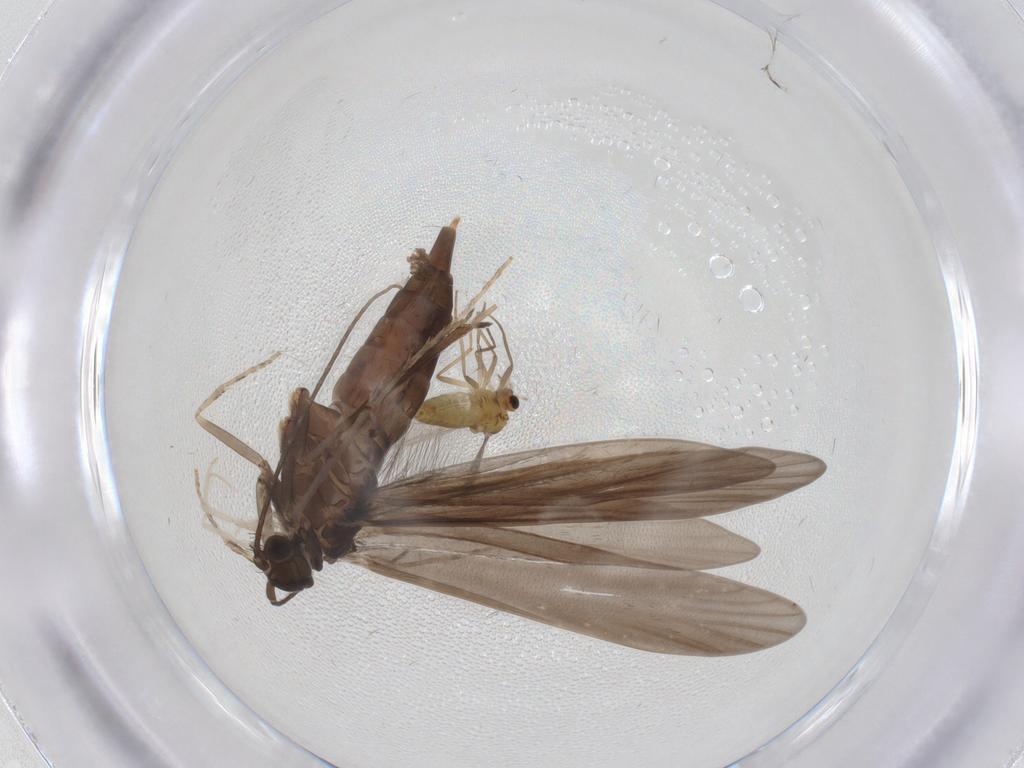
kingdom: Animalia
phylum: Arthropoda
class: Insecta
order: Trichoptera
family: Xiphocentronidae
